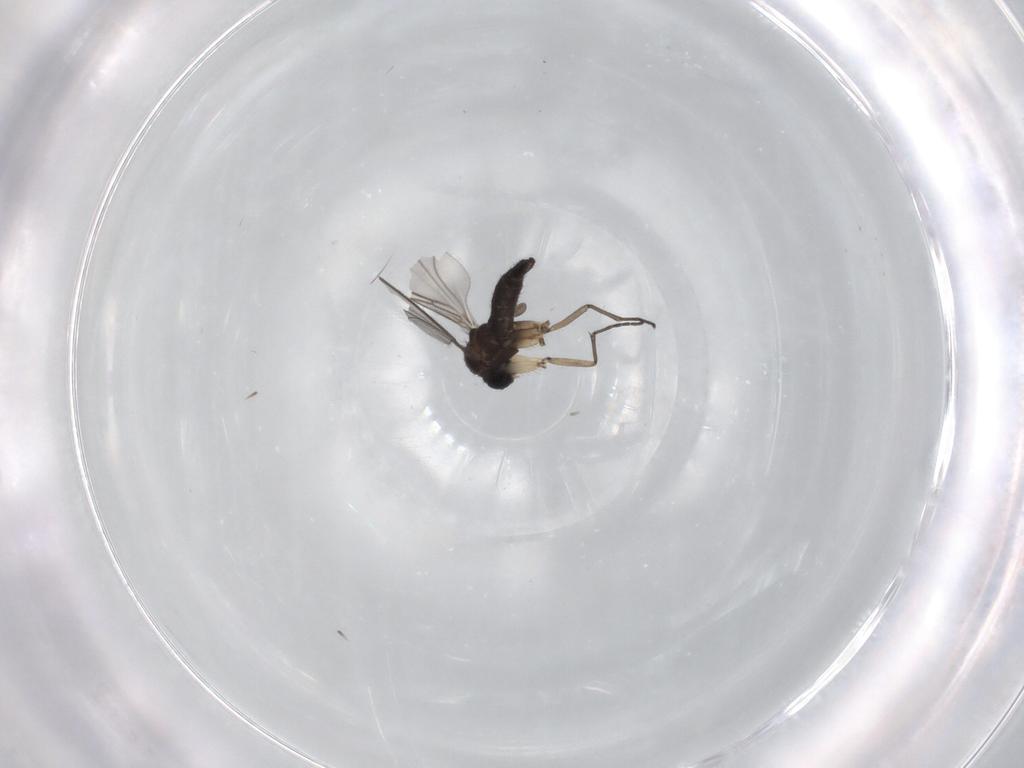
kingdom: Animalia
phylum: Arthropoda
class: Insecta
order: Diptera
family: Sciaridae
